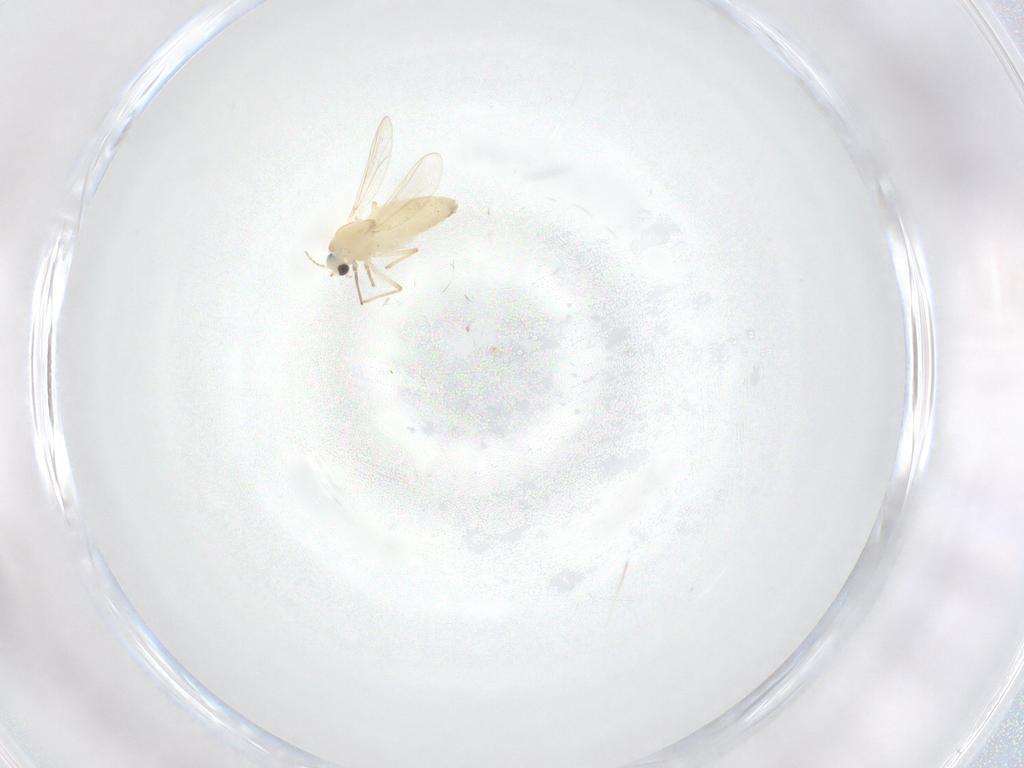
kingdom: Animalia
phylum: Arthropoda
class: Insecta
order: Diptera
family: Chironomidae
